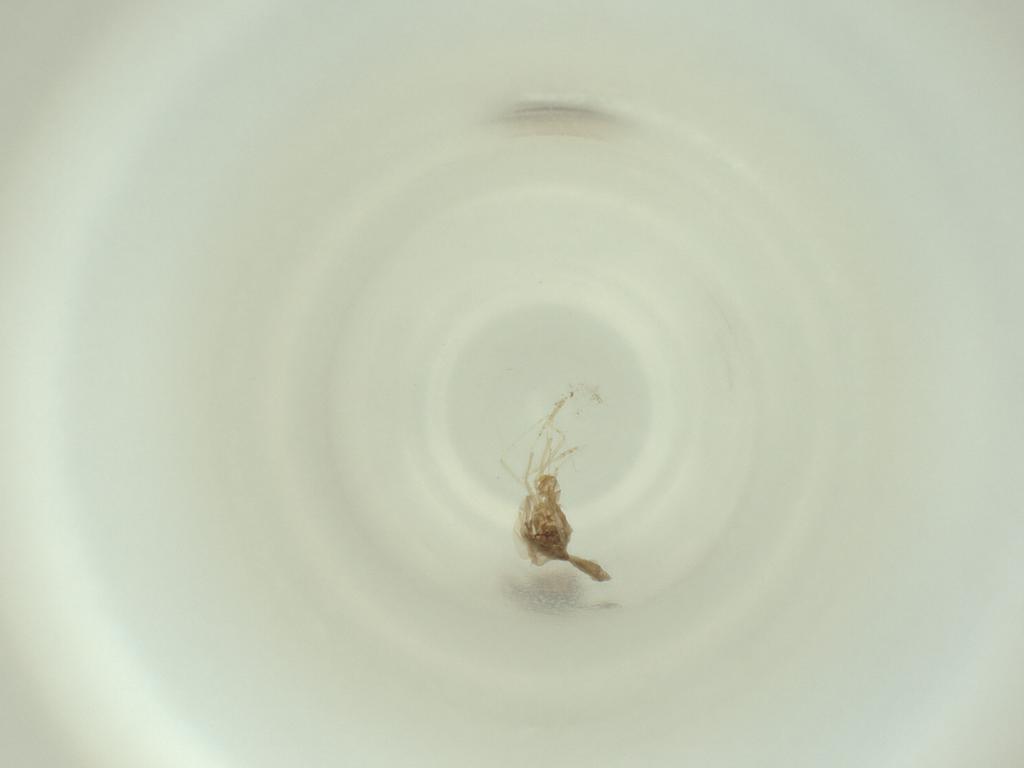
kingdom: Animalia
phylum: Arthropoda
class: Insecta
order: Diptera
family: Cecidomyiidae
